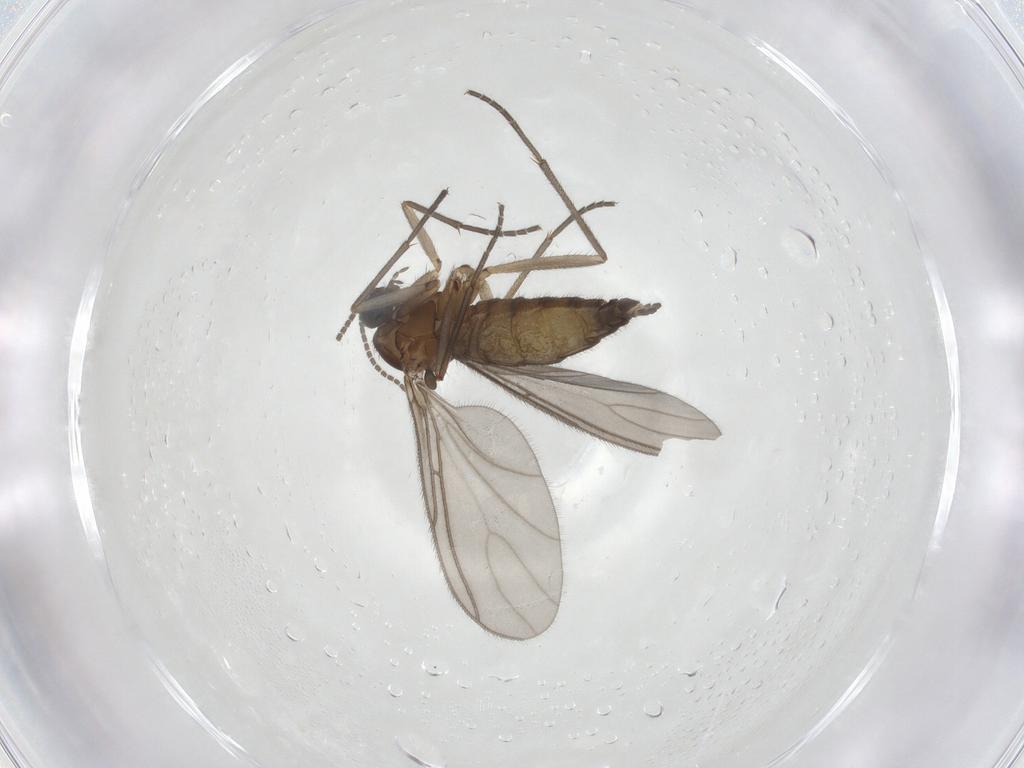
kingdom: Animalia
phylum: Arthropoda
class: Insecta
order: Diptera
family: Sciaridae
